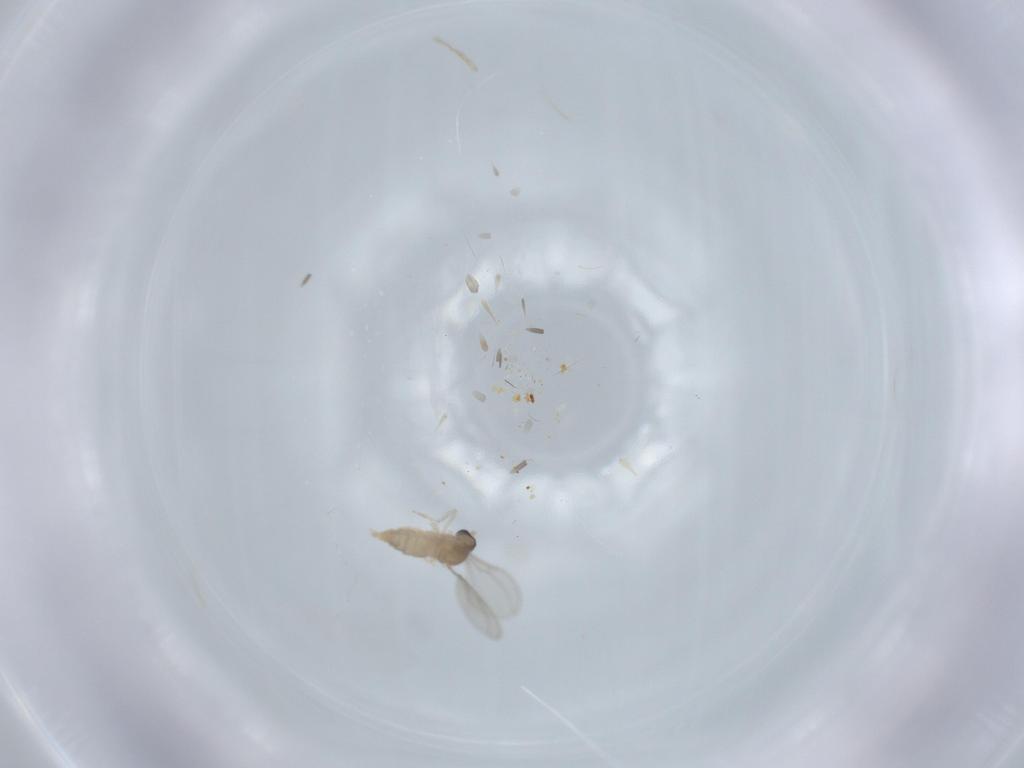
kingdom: Animalia
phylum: Arthropoda
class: Insecta
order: Diptera
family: Cecidomyiidae
